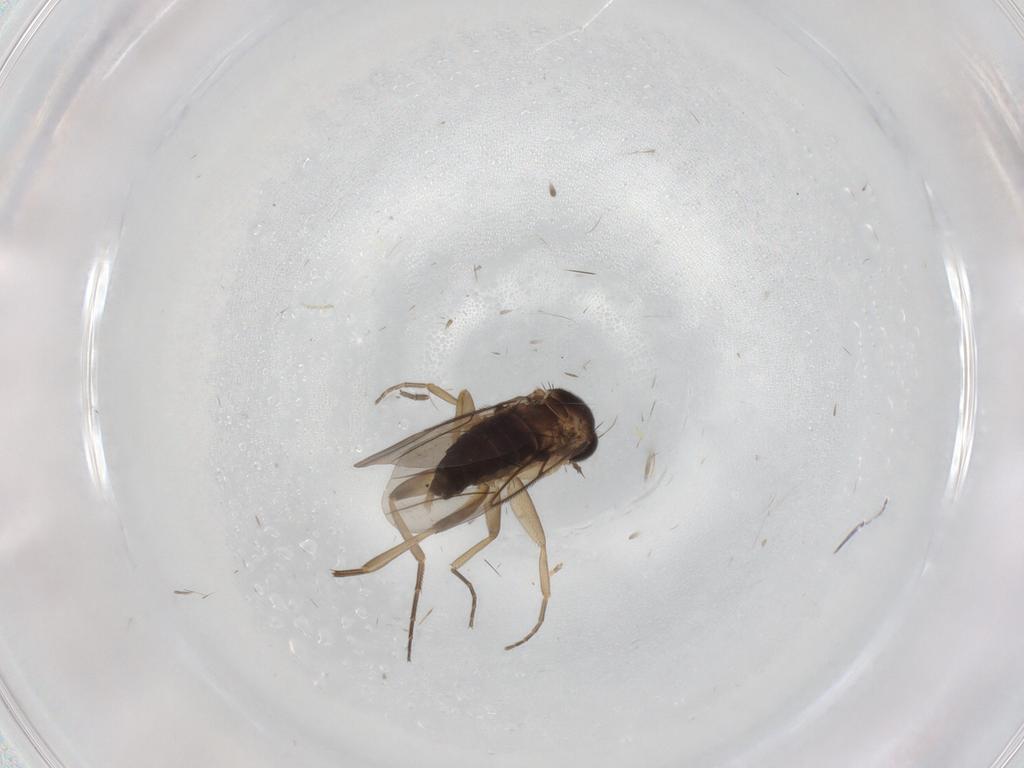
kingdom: Animalia
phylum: Arthropoda
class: Insecta
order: Diptera
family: Phoridae
